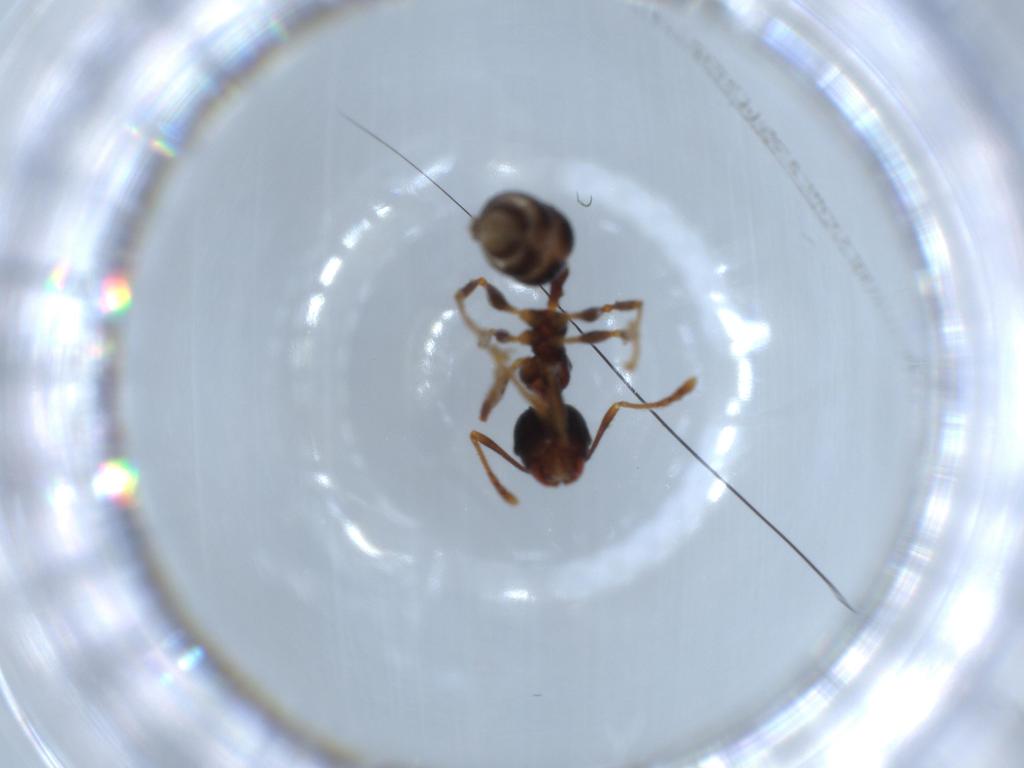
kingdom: Animalia
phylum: Arthropoda
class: Insecta
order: Hymenoptera
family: Formicidae
